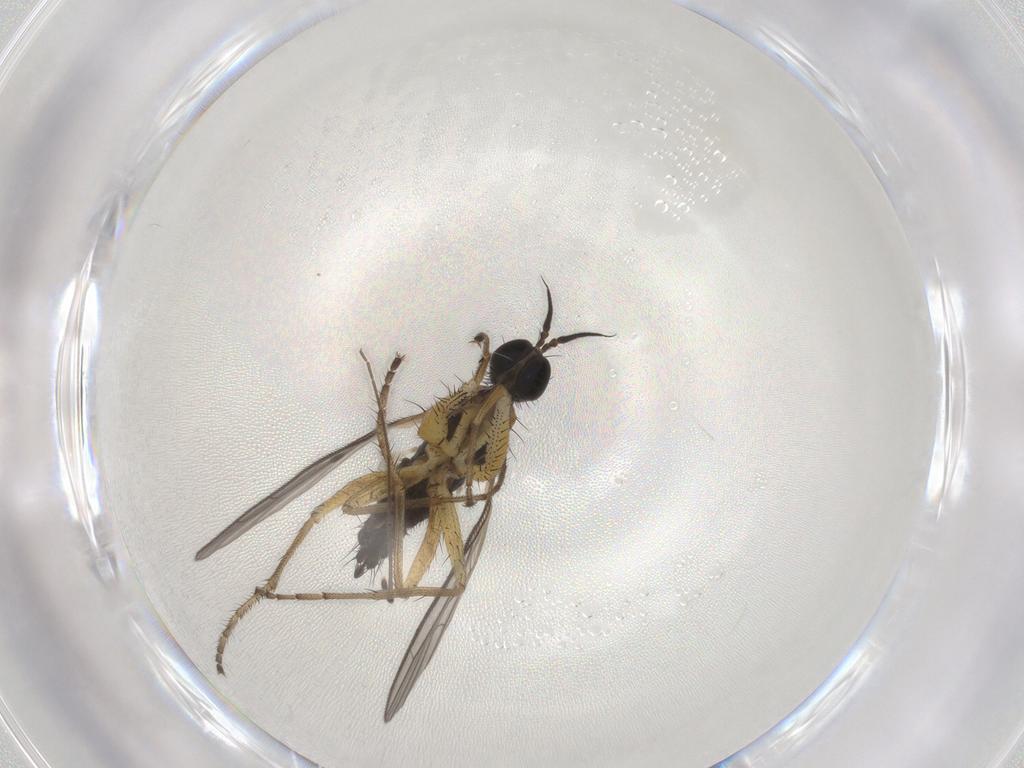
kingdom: Animalia
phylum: Arthropoda
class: Insecta
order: Diptera
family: Chironomidae
